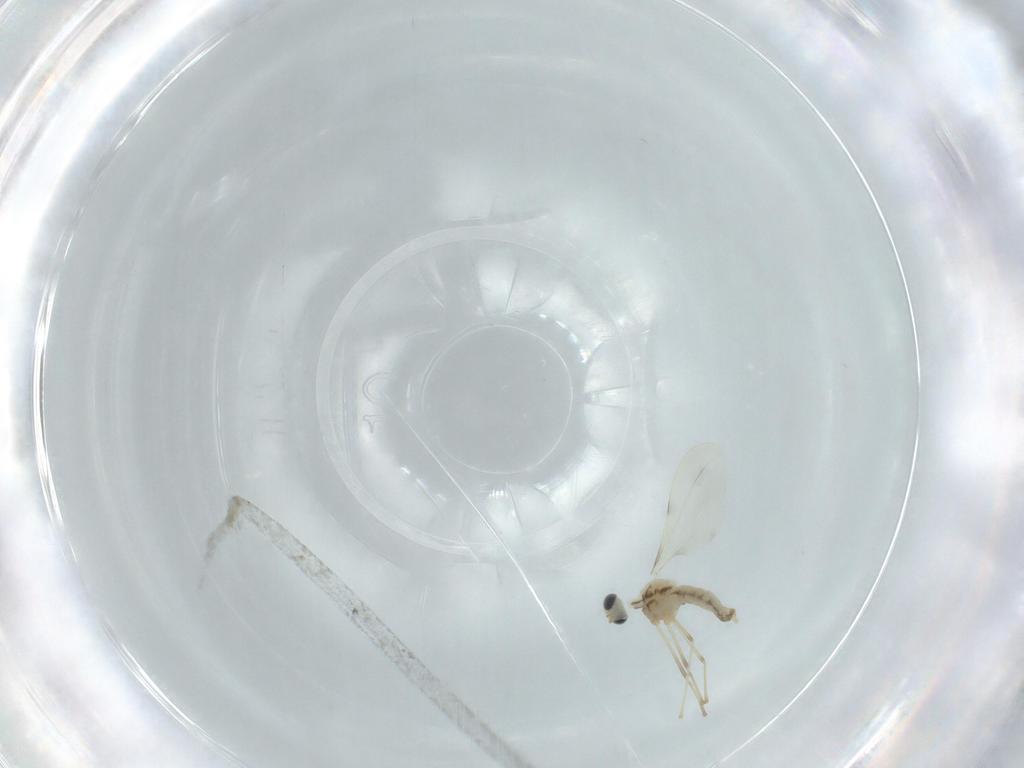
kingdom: Animalia
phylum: Arthropoda
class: Insecta
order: Diptera
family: Cecidomyiidae
